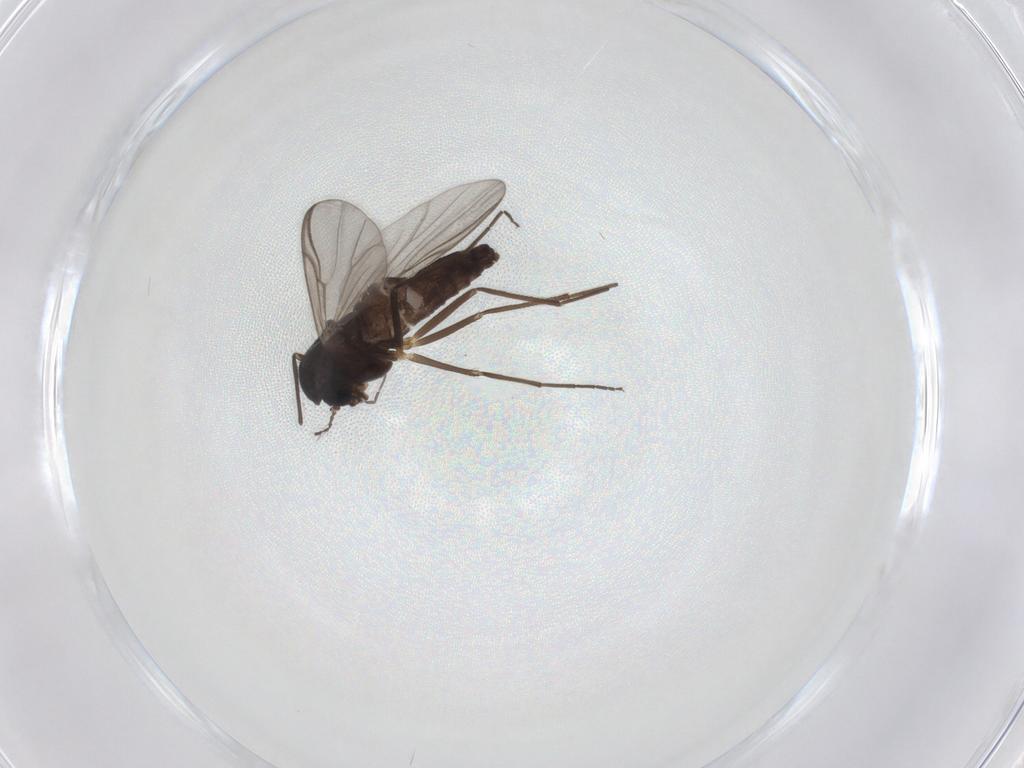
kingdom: Animalia
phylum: Arthropoda
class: Insecta
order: Diptera
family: Chironomidae
